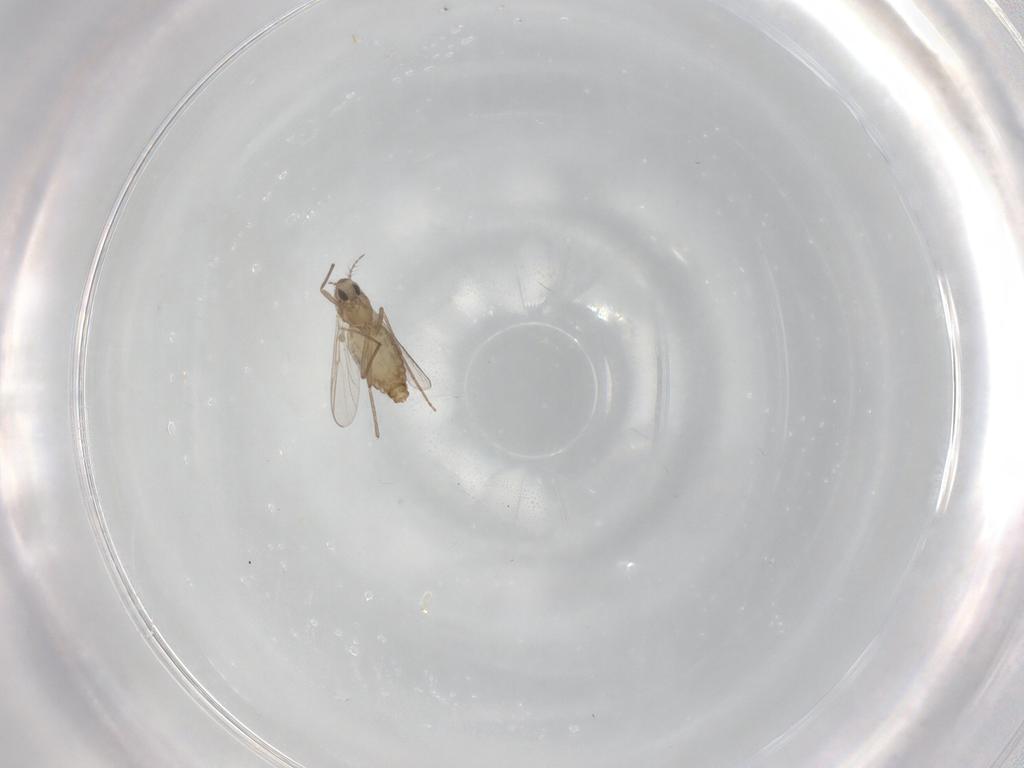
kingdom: Animalia
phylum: Arthropoda
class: Insecta
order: Diptera
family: Chironomidae
